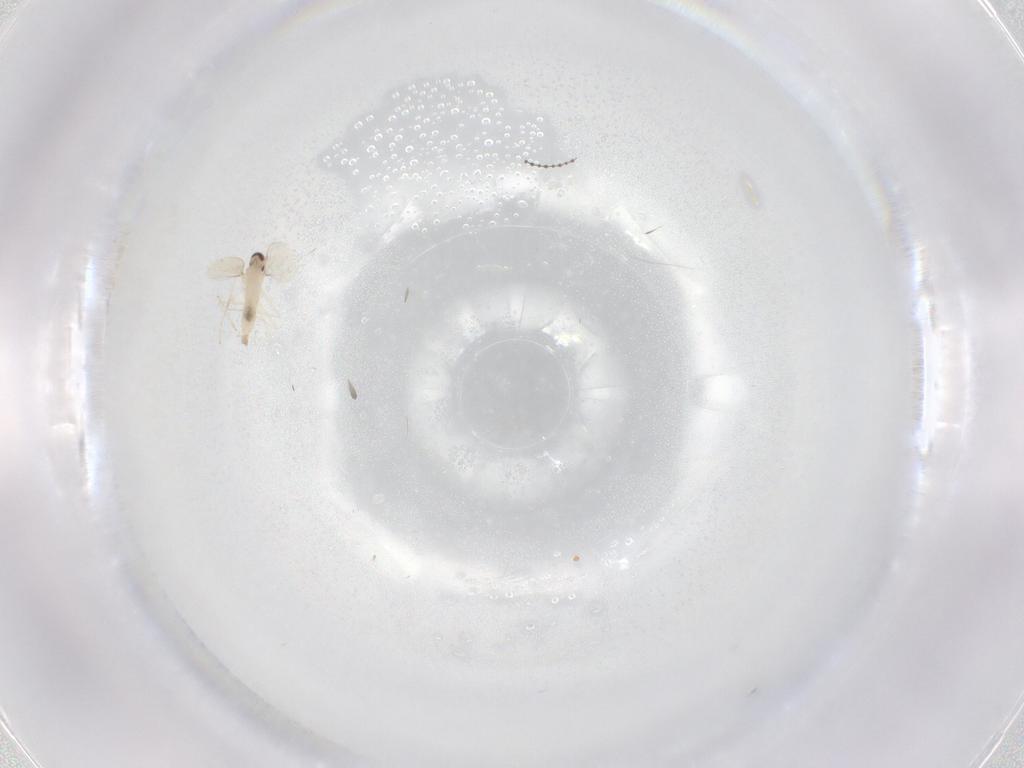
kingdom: Animalia
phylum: Arthropoda
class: Insecta
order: Diptera
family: Cecidomyiidae
